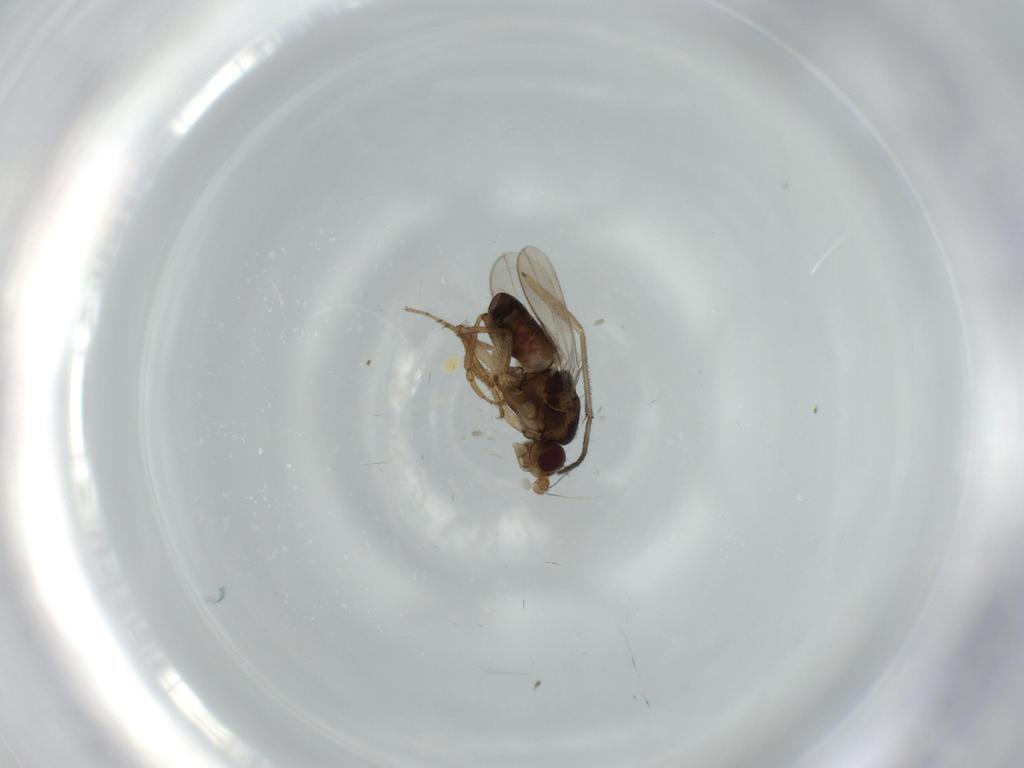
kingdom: Animalia
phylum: Arthropoda
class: Insecta
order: Diptera
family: Sphaeroceridae
